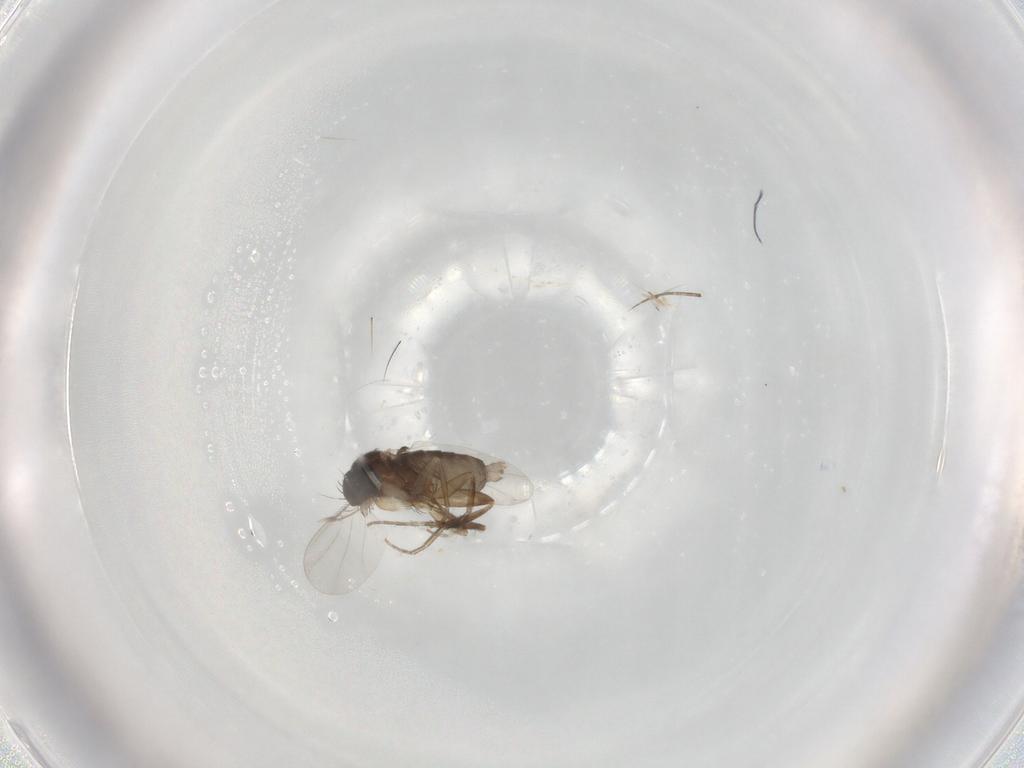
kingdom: Animalia
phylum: Arthropoda
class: Insecta
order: Diptera
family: Phoridae
